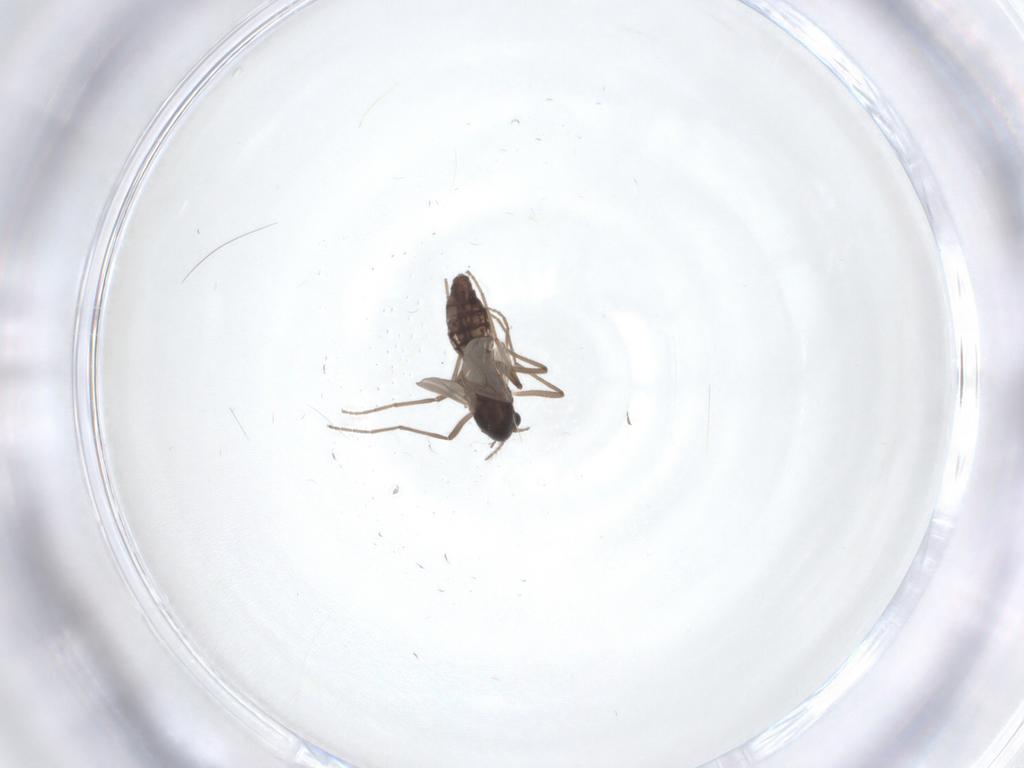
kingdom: Animalia
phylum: Arthropoda
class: Insecta
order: Diptera
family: Chironomidae
